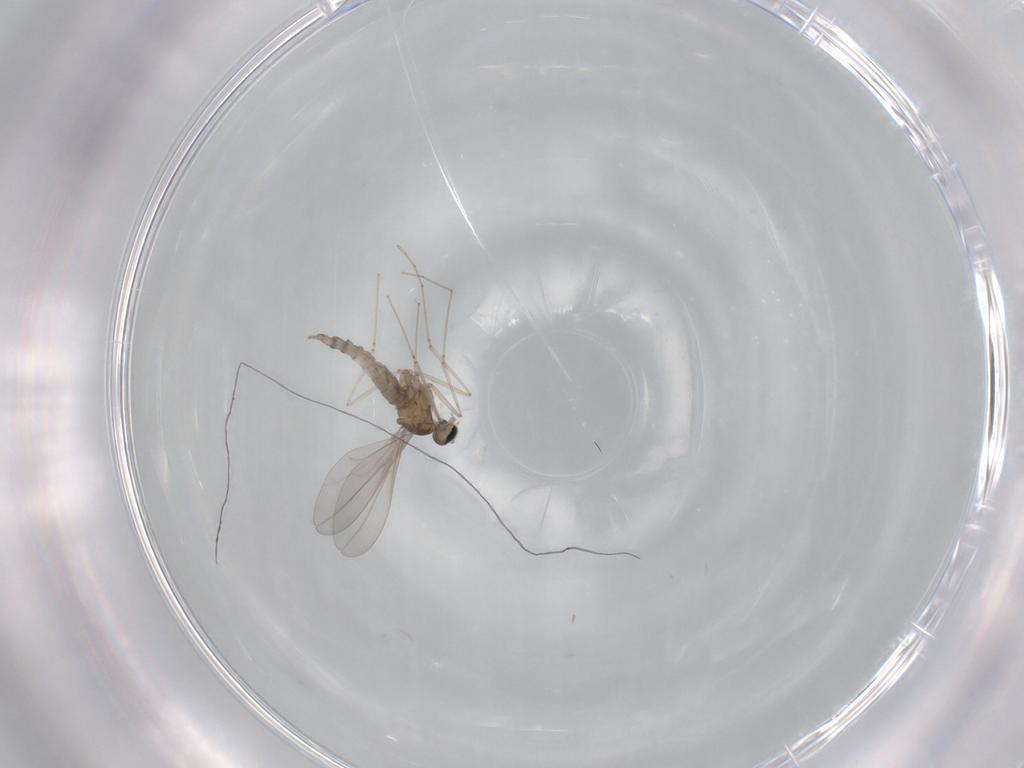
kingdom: Animalia
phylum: Arthropoda
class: Insecta
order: Diptera
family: Cecidomyiidae
